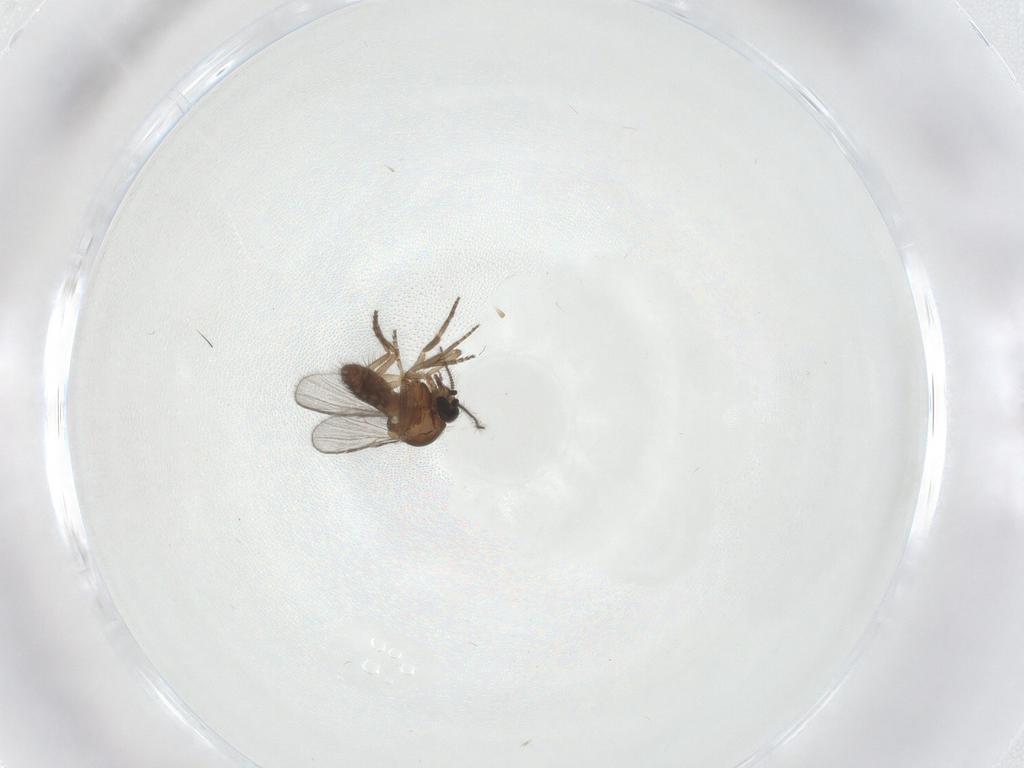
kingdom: Animalia
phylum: Arthropoda
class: Insecta
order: Diptera
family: Ceratopogonidae
